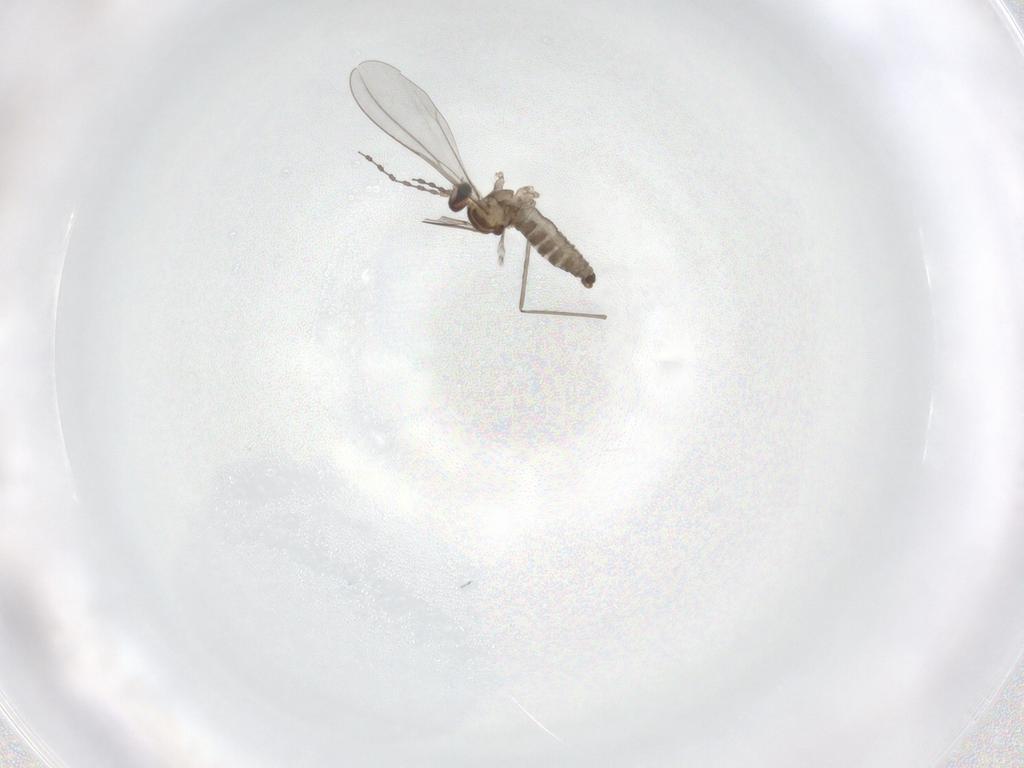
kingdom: Animalia
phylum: Arthropoda
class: Insecta
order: Diptera
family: Cecidomyiidae
